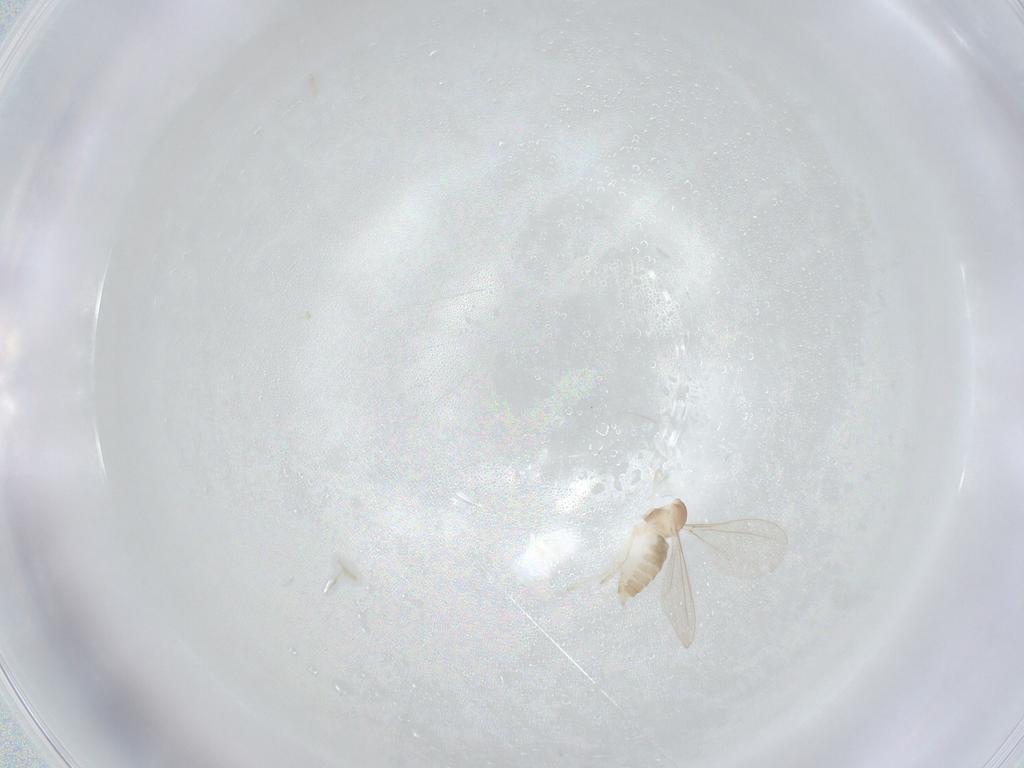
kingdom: Animalia
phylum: Arthropoda
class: Insecta
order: Diptera
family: Cecidomyiidae
